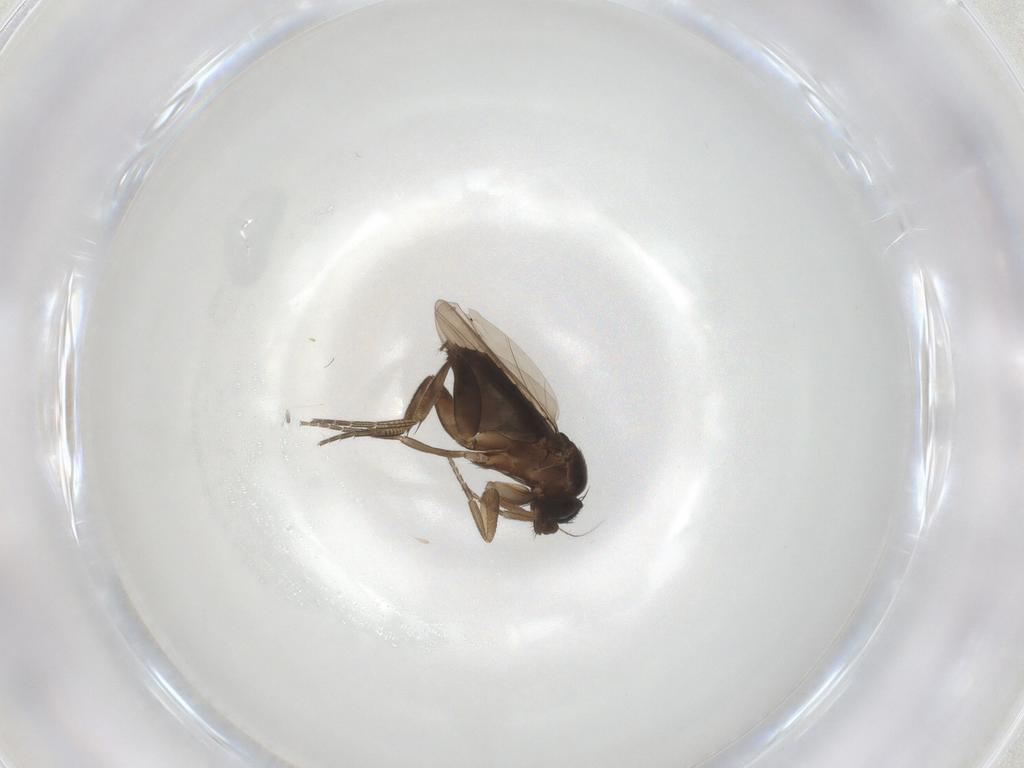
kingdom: Animalia
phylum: Arthropoda
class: Insecta
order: Diptera
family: Phoridae
